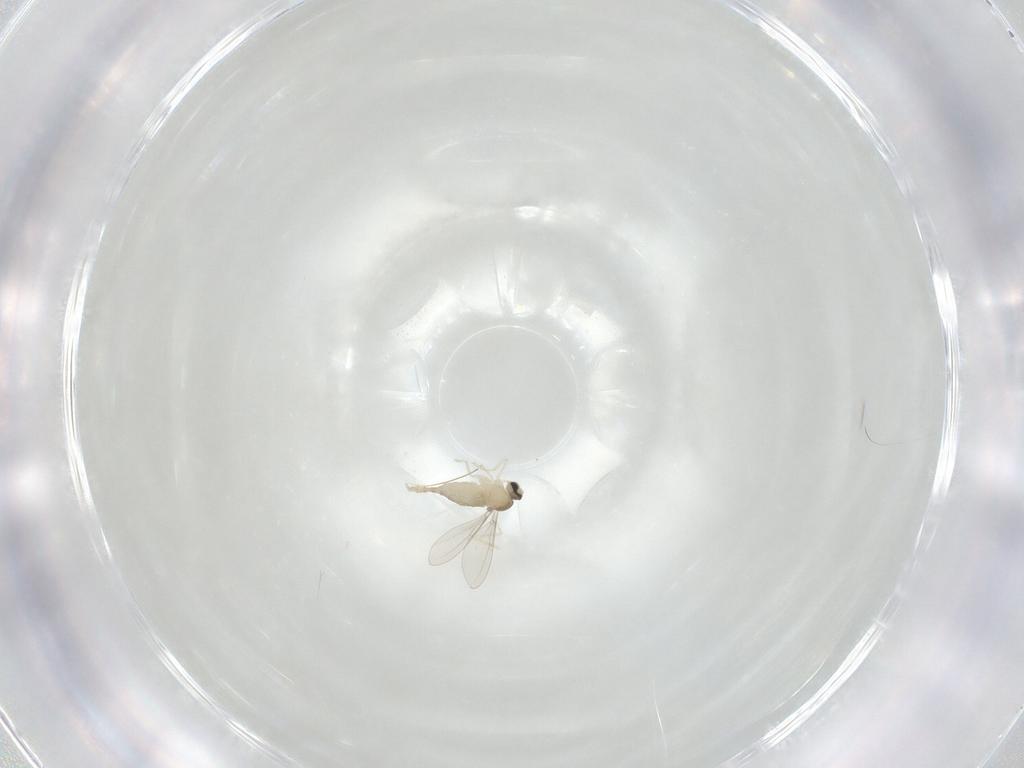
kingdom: Animalia
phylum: Arthropoda
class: Insecta
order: Diptera
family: Cecidomyiidae
